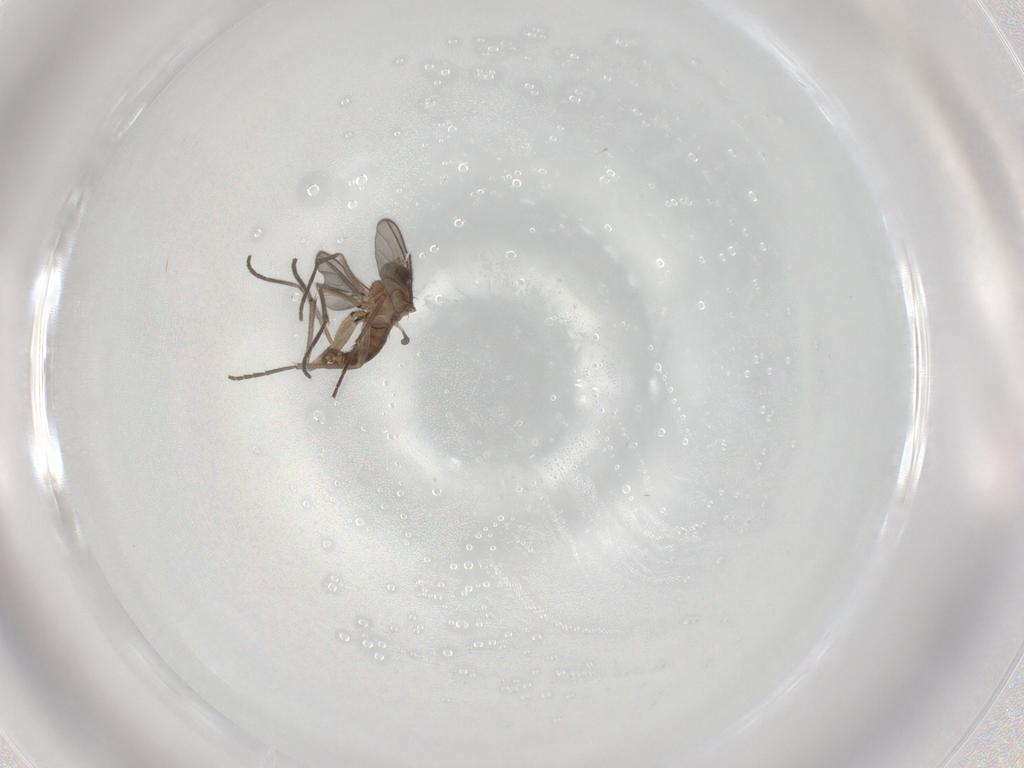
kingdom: Animalia
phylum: Arthropoda
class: Insecta
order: Diptera
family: Sciaridae
